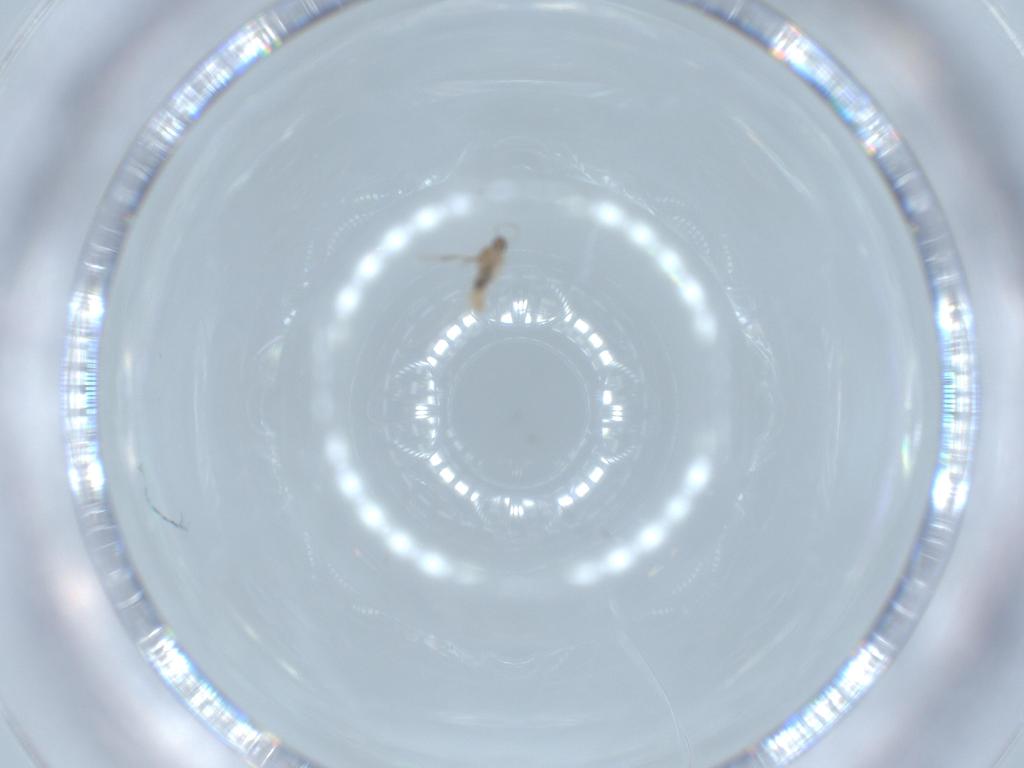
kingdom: Animalia
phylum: Arthropoda
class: Insecta
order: Diptera
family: Cecidomyiidae
